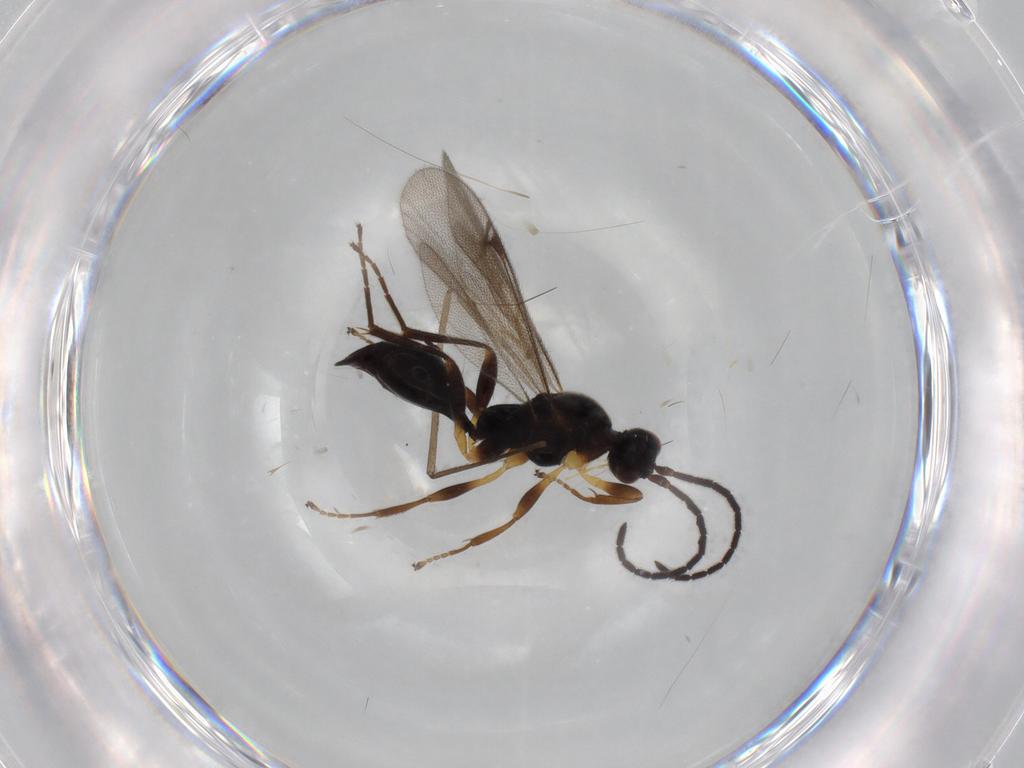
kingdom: Animalia
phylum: Arthropoda
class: Insecta
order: Hymenoptera
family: Proctotrupidae
